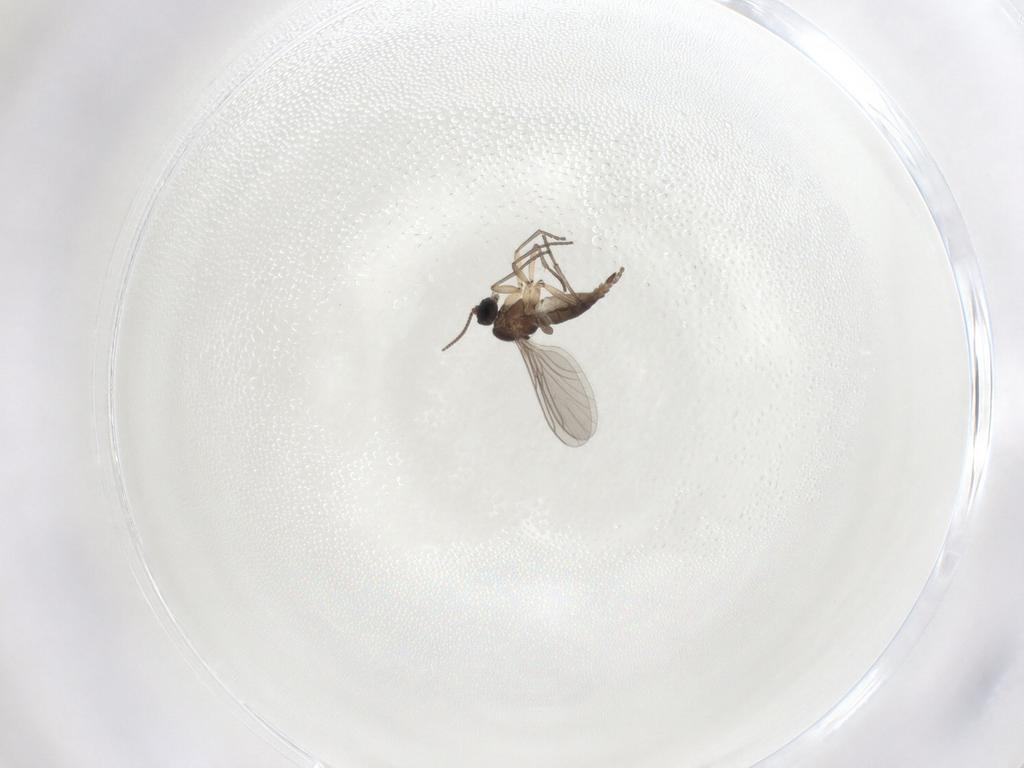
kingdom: Animalia
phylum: Arthropoda
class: Insecta
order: Diptera
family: Sciaridae
